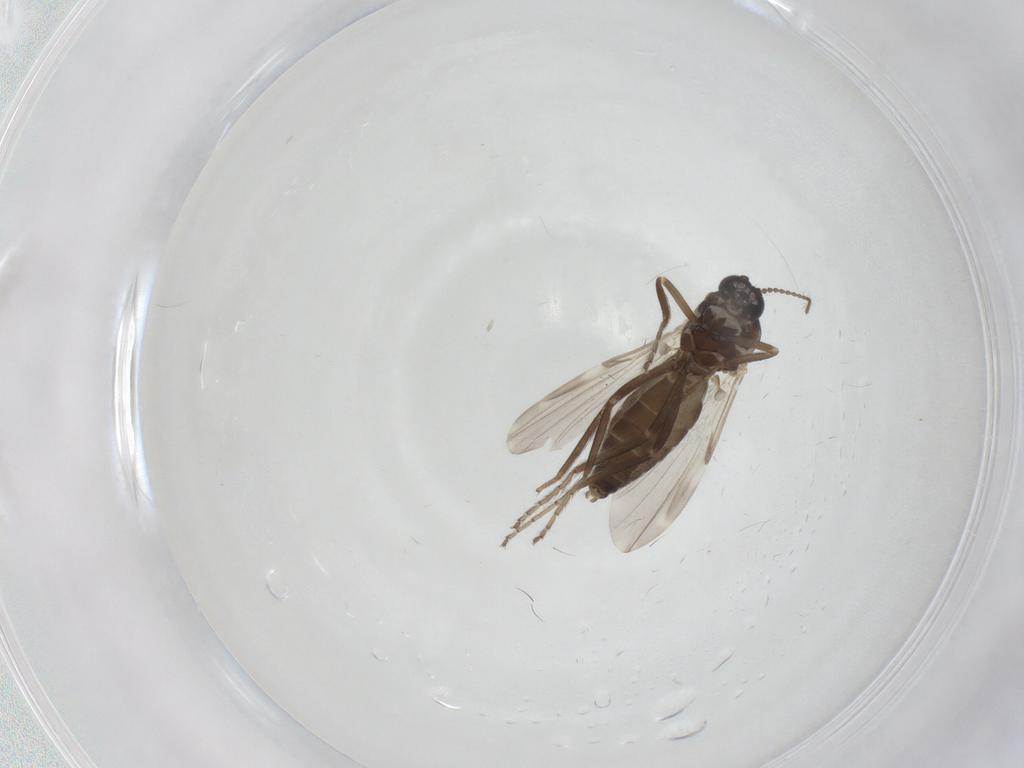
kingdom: Animalia
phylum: Arthropoda
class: Insecta
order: Diptera
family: Ceratopogonidae
